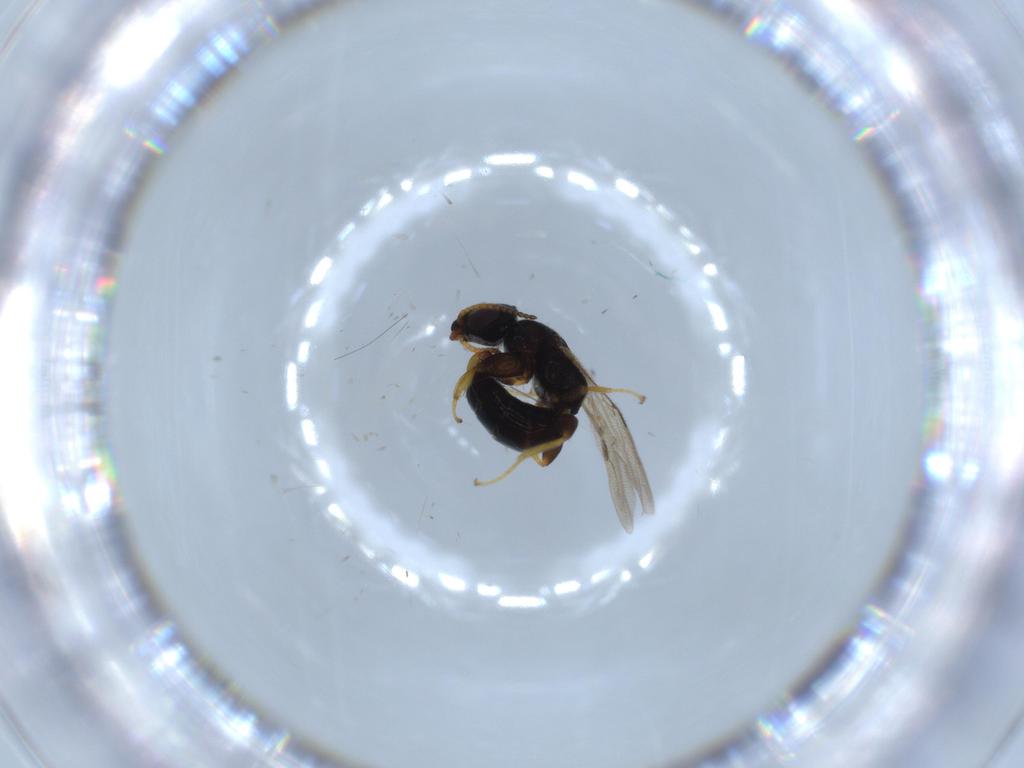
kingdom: Animalia
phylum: Arthropoda
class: Insecta
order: Hymenoptera
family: Bethylidae
